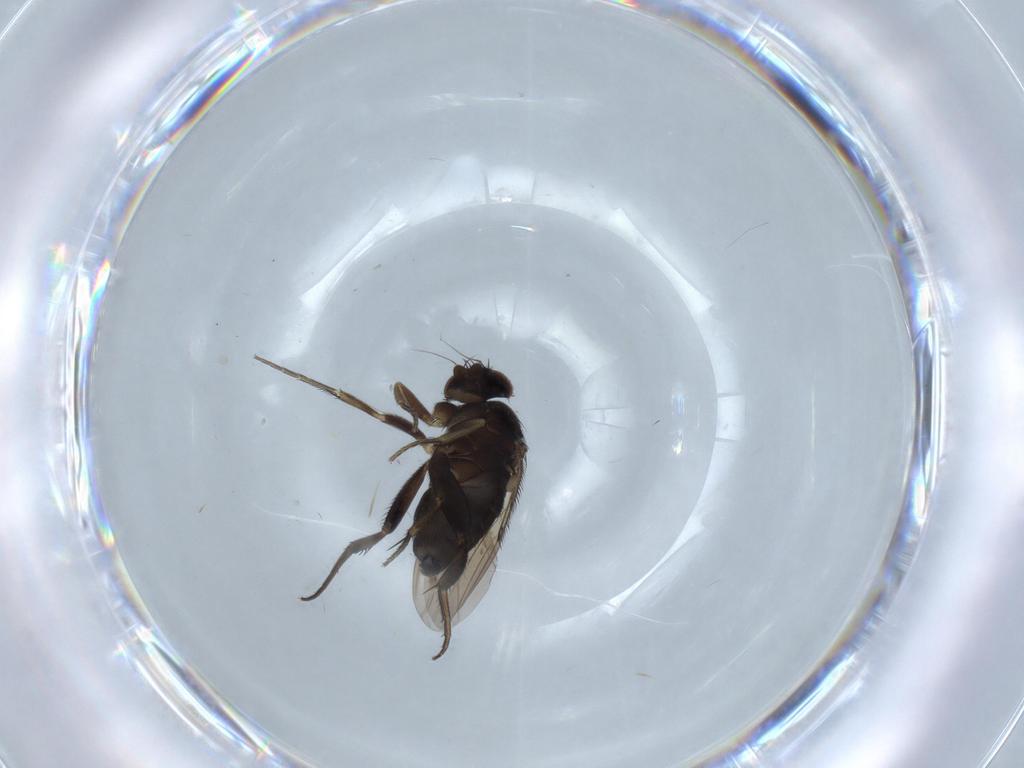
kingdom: Animalia
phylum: Arthropoda
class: Insecta
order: Diptera
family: Phoridae
